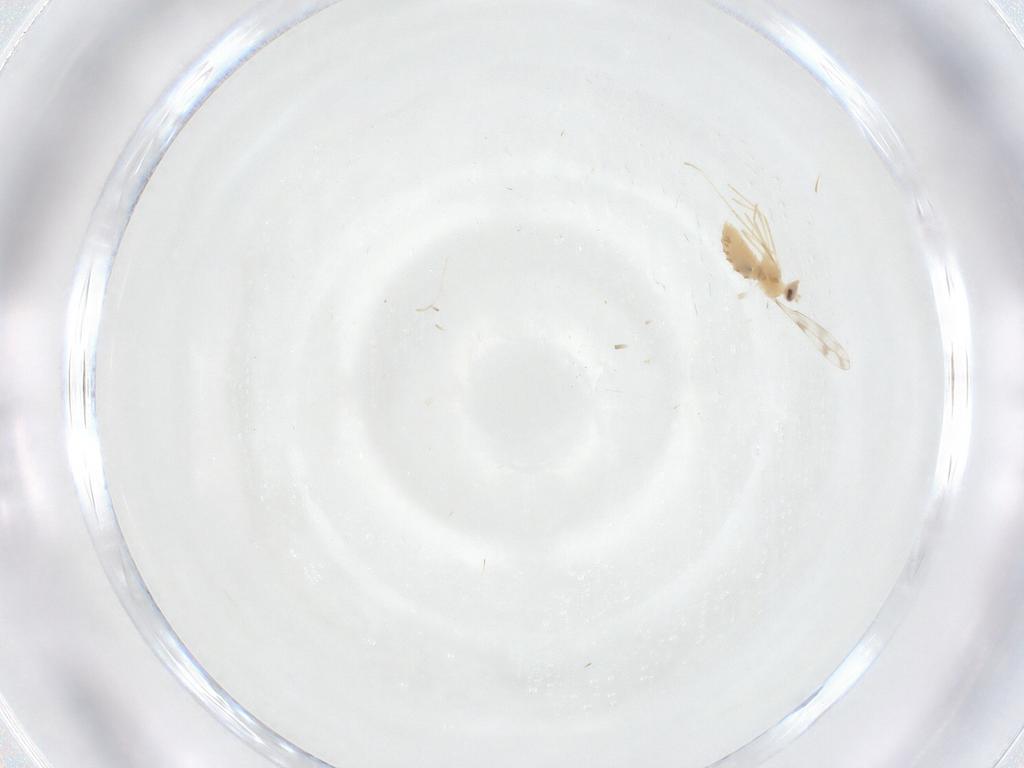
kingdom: Animalia
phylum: Arthropoda
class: Insecta
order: Diptera
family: Cecidomyiidae
